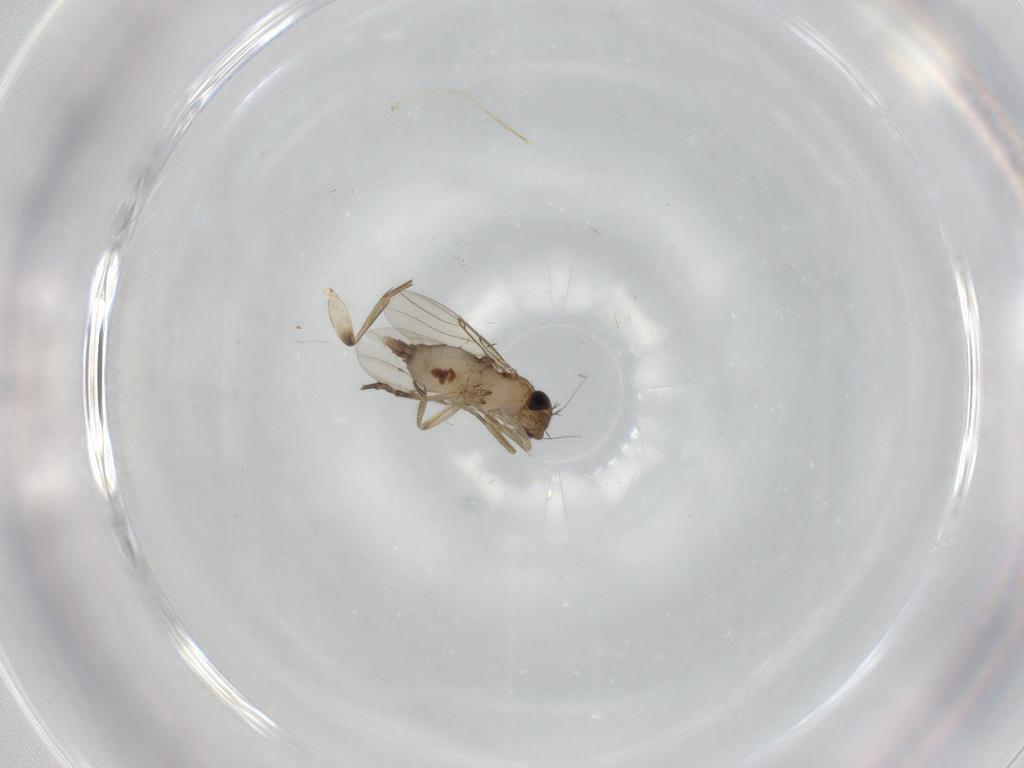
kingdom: Animalia
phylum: Arthropoda
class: Insecta
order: Diptera
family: Phoridae
